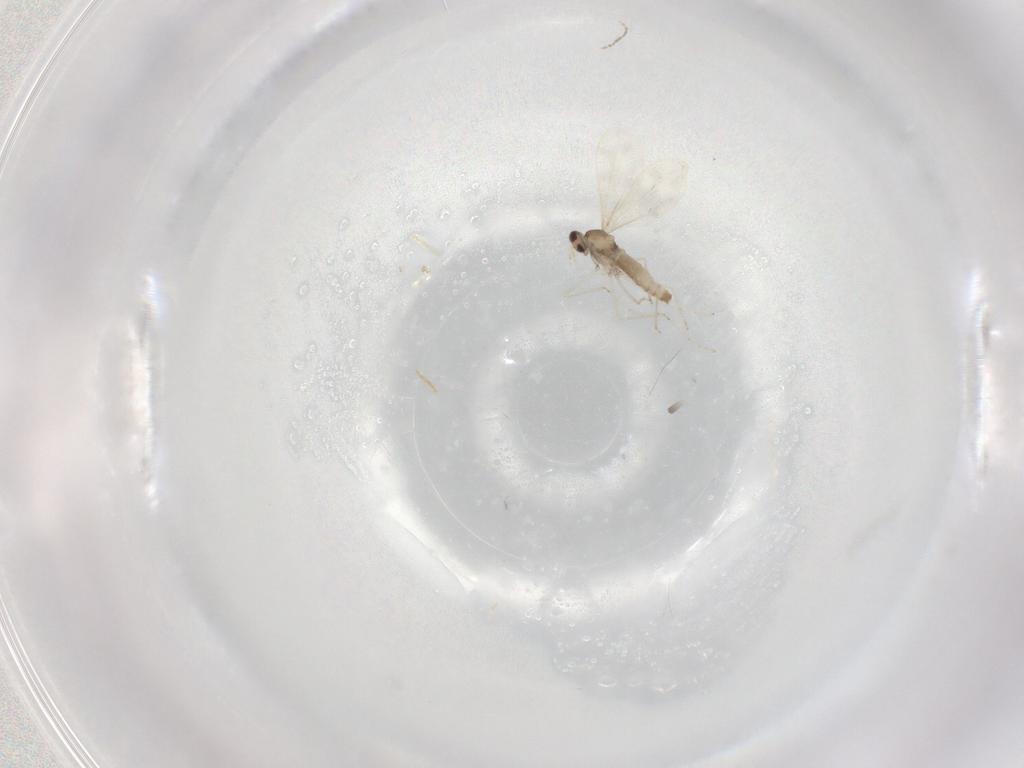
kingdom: Animalia
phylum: Arthropoda
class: Insecta
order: Diptera
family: Cecidomyiidae
